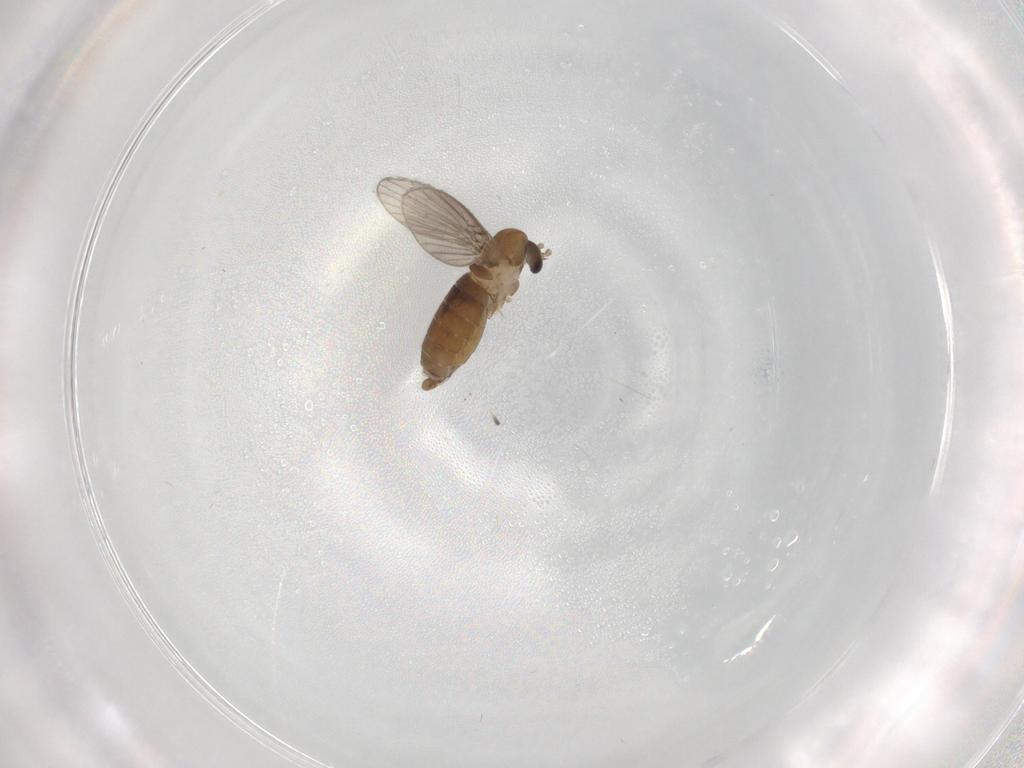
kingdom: Animalia
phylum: Arthropoda
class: Insecta
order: Diptera
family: Psychodidae
